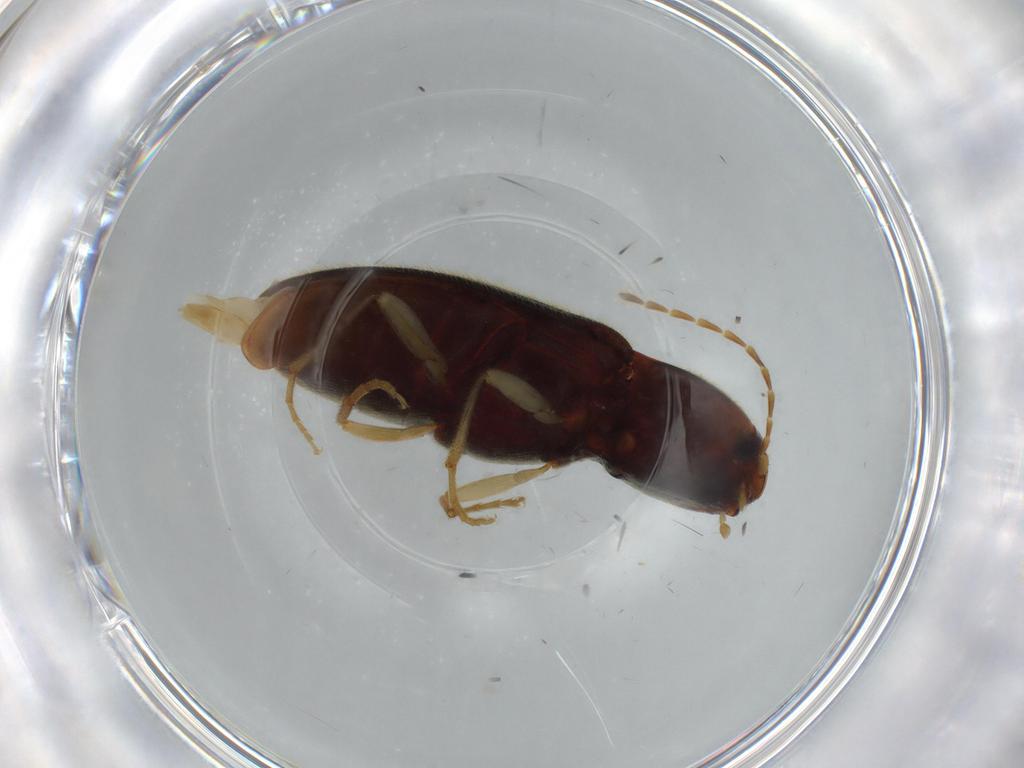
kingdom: Animalia
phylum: Arthropoda
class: Insecta
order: Coleoptera
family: Elateridae
